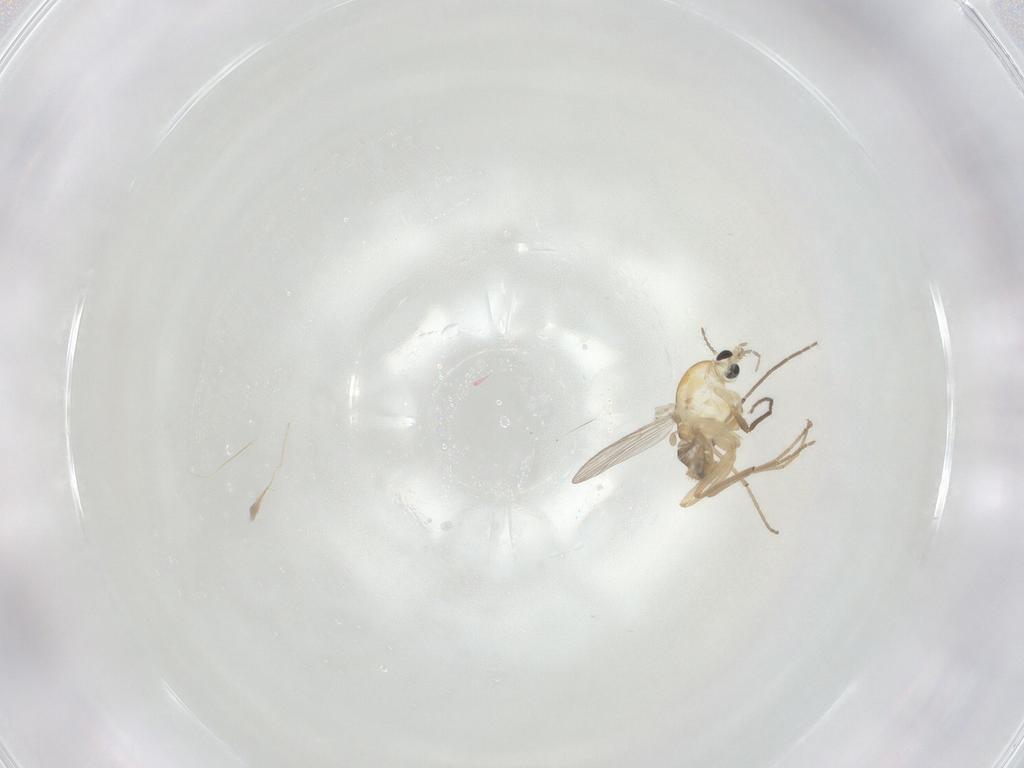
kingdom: Animalia
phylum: Arthropoda
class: Insecta
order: Diptera
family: Chironomidae
